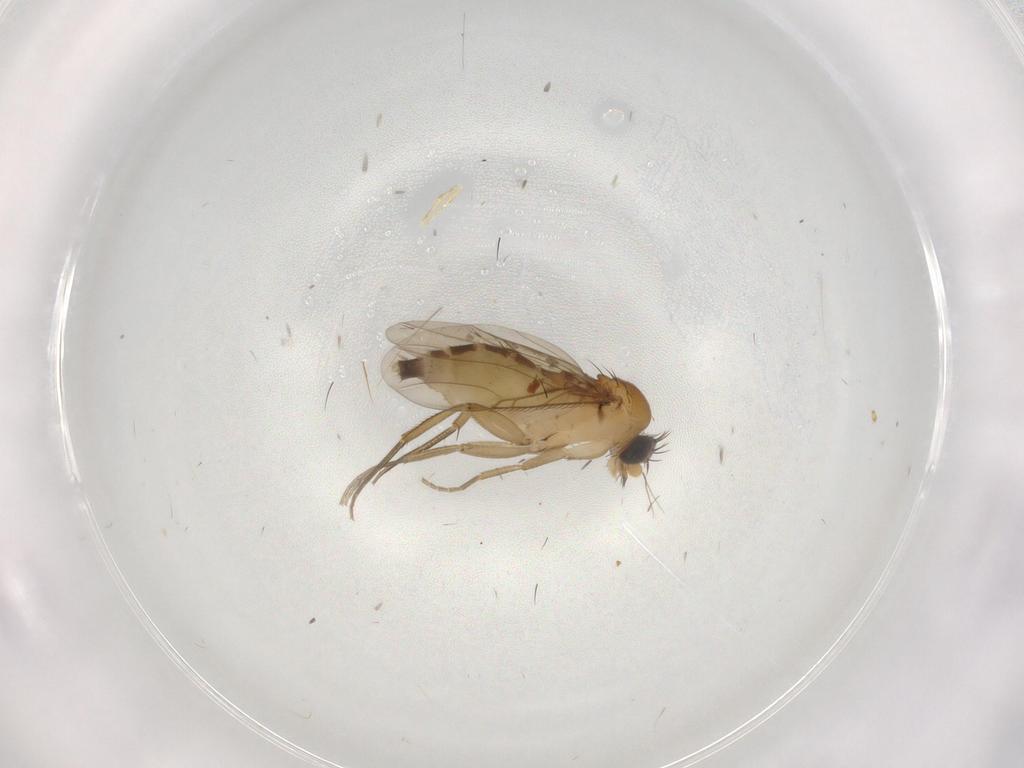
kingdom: Animalia
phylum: Arthropoda
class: Insecta
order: Diptera
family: Phoridae
